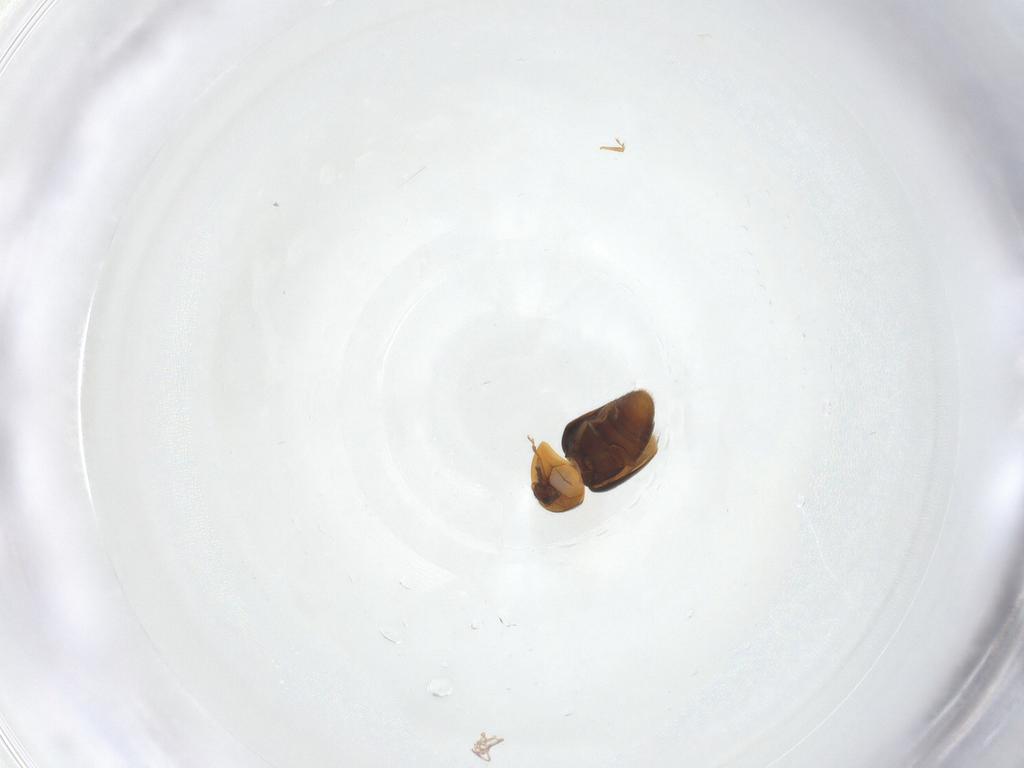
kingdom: Animalia
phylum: Arthropoda
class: Insecta
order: Coleoptera
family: Corylophidae
